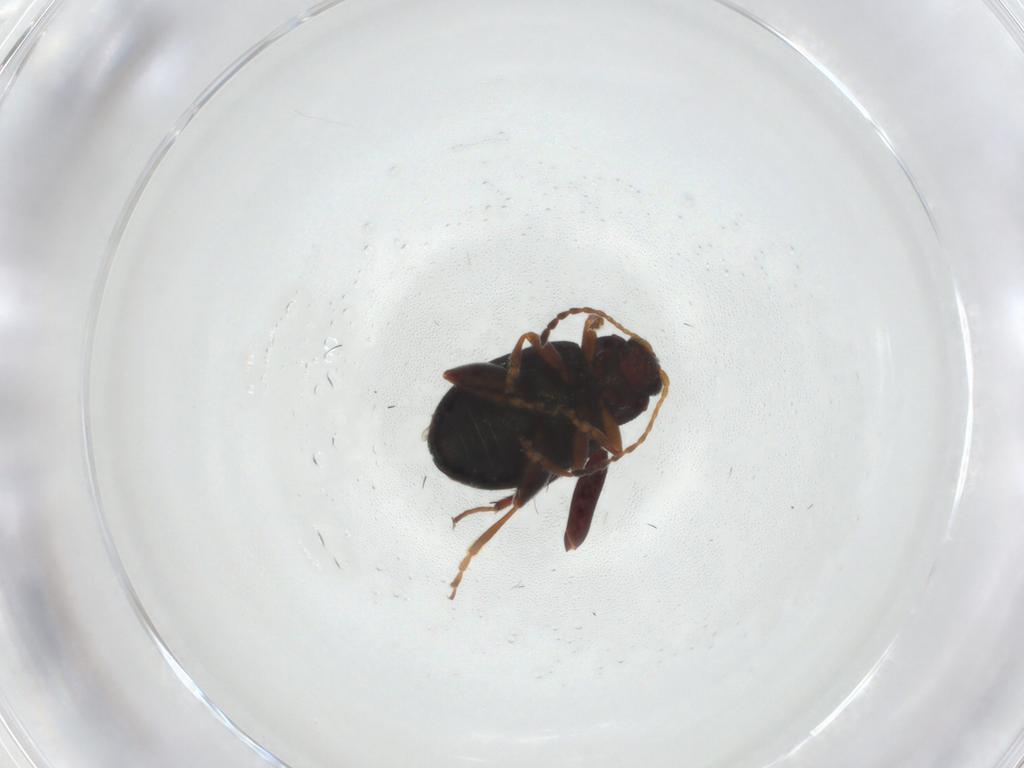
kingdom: Animalia
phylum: Arthropoda
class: Insecta
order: Coleoptera
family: Chrysomelidae
